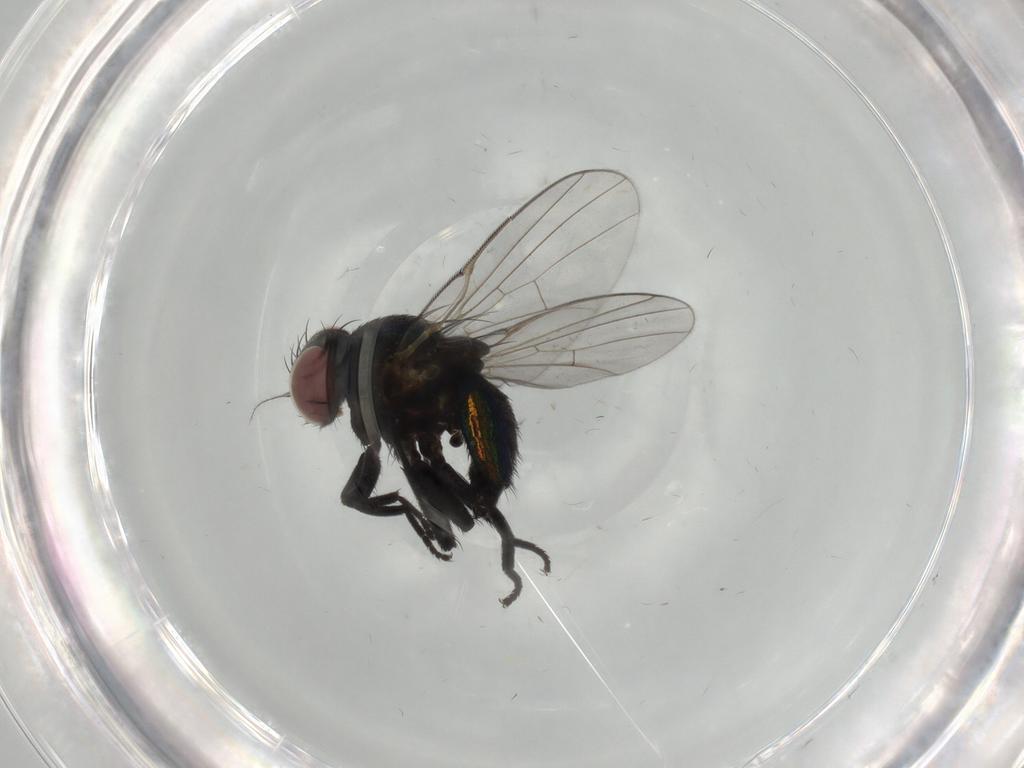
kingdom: Animalia
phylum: Arthropoda
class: Insecta
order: Diptera
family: Agromyzidae
